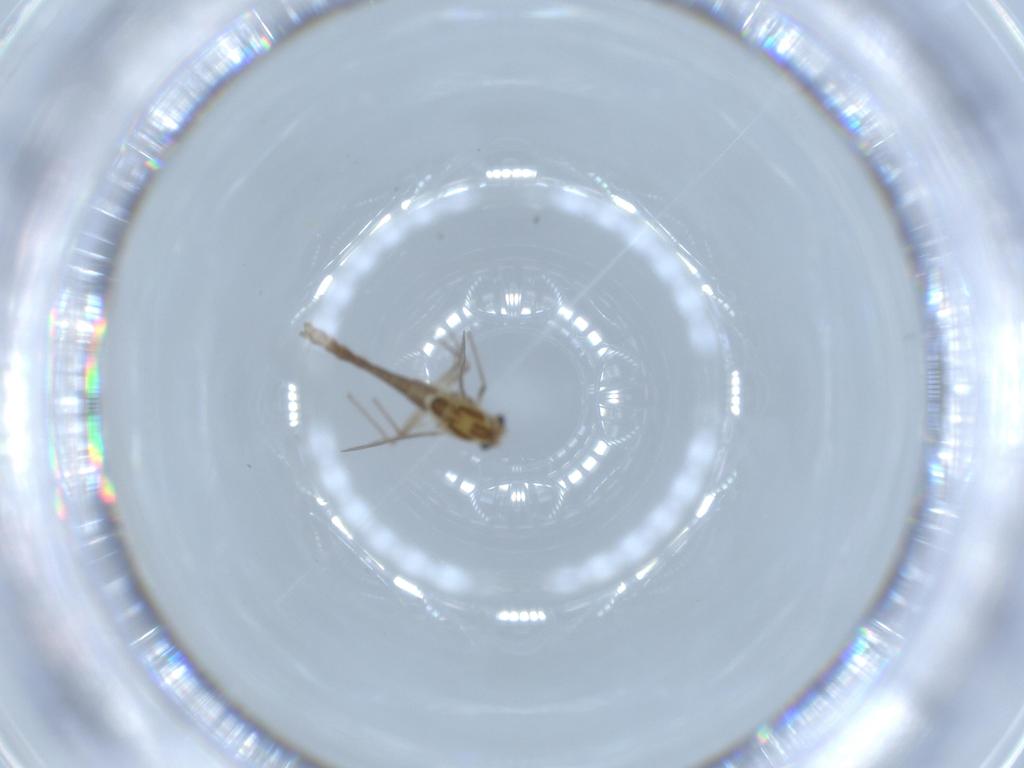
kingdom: Animalia
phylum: Arthropoda
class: Insecta
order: Diptera
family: Chironomidae
